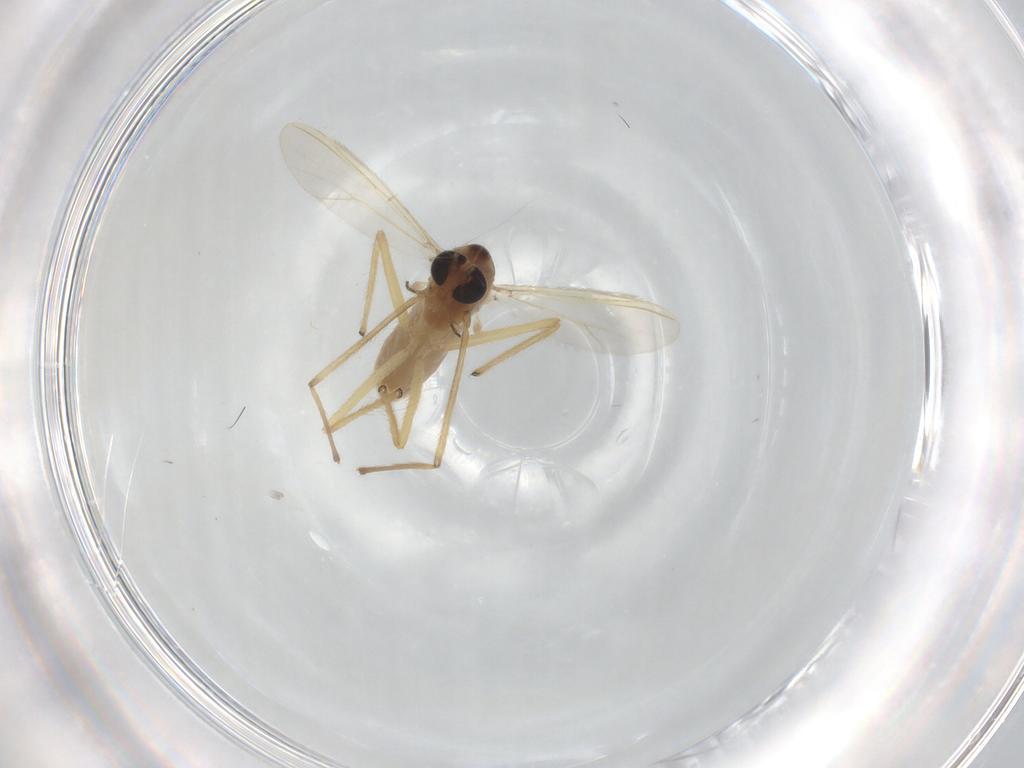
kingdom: Animalia
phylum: Arthropoda
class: Insecta
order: Diptera
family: Chironomidae
